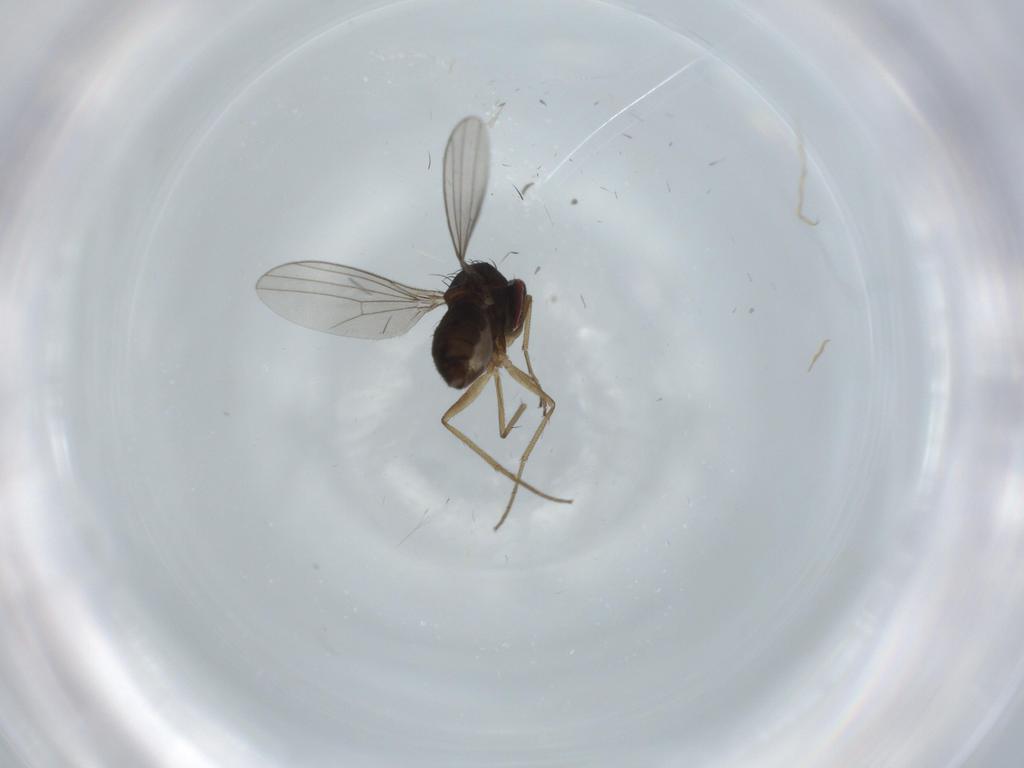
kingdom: Animalia
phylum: Arthropoda
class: Insecta
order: Diptera
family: Dolichopodidae
